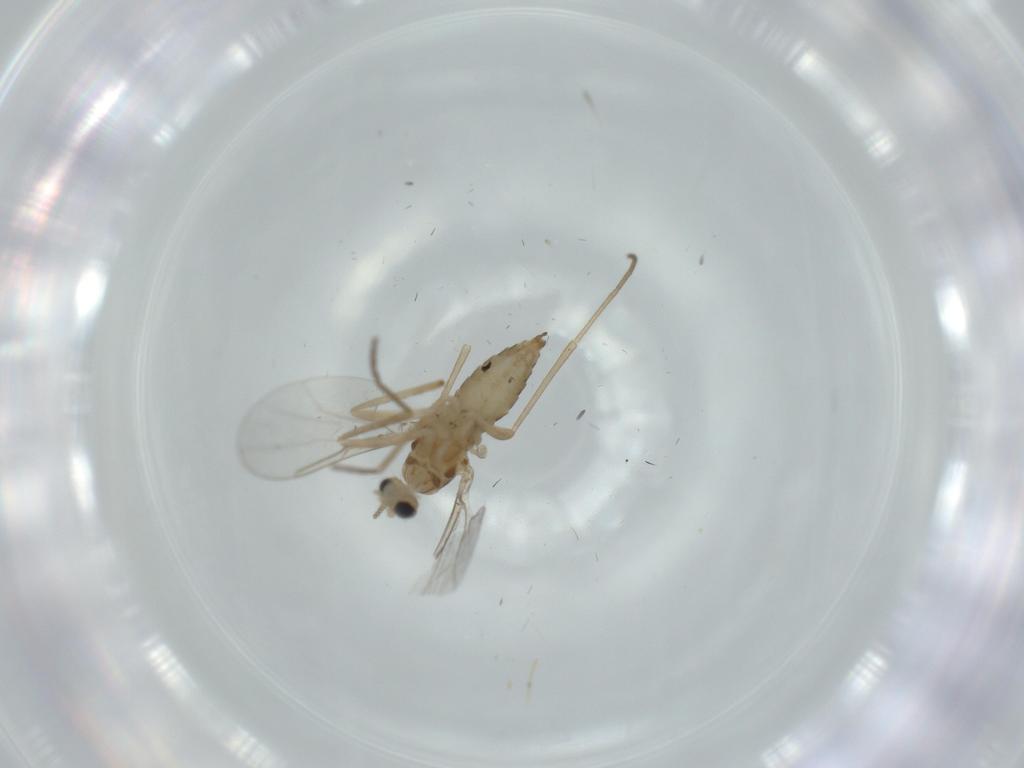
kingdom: Animalia
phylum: Arthropoda
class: Insecta
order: Diptera
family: Cecidomyiidae
